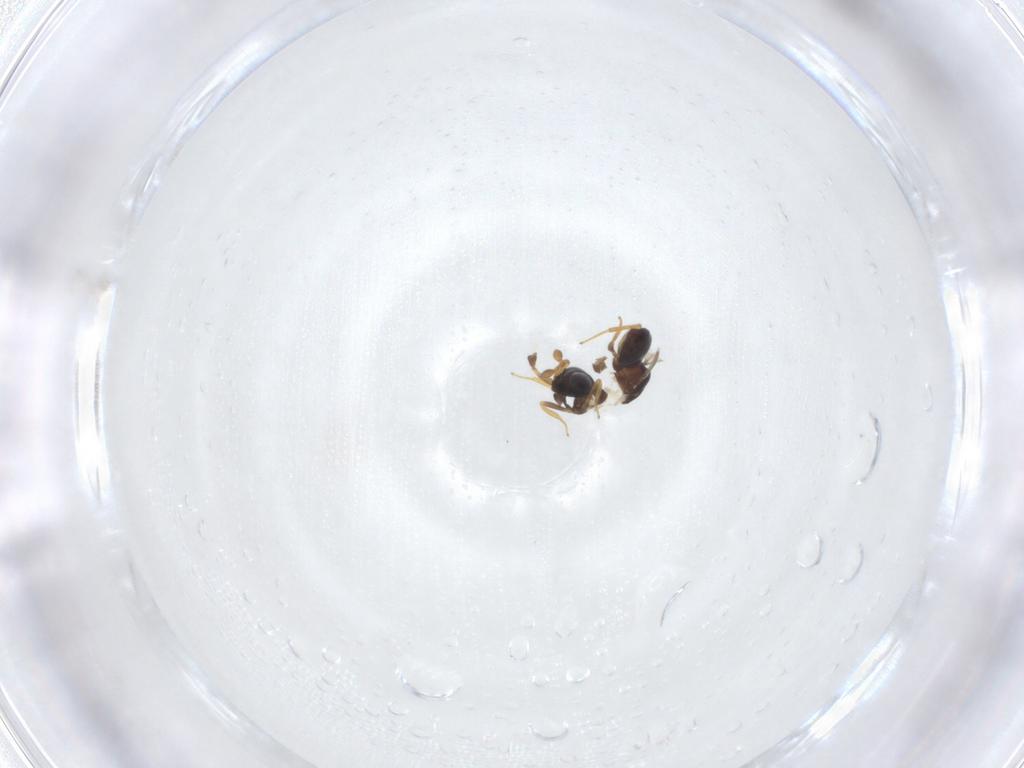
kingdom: Animalia
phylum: Arthropoda
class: Insecta
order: Hymenoptera
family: Scelionidae
